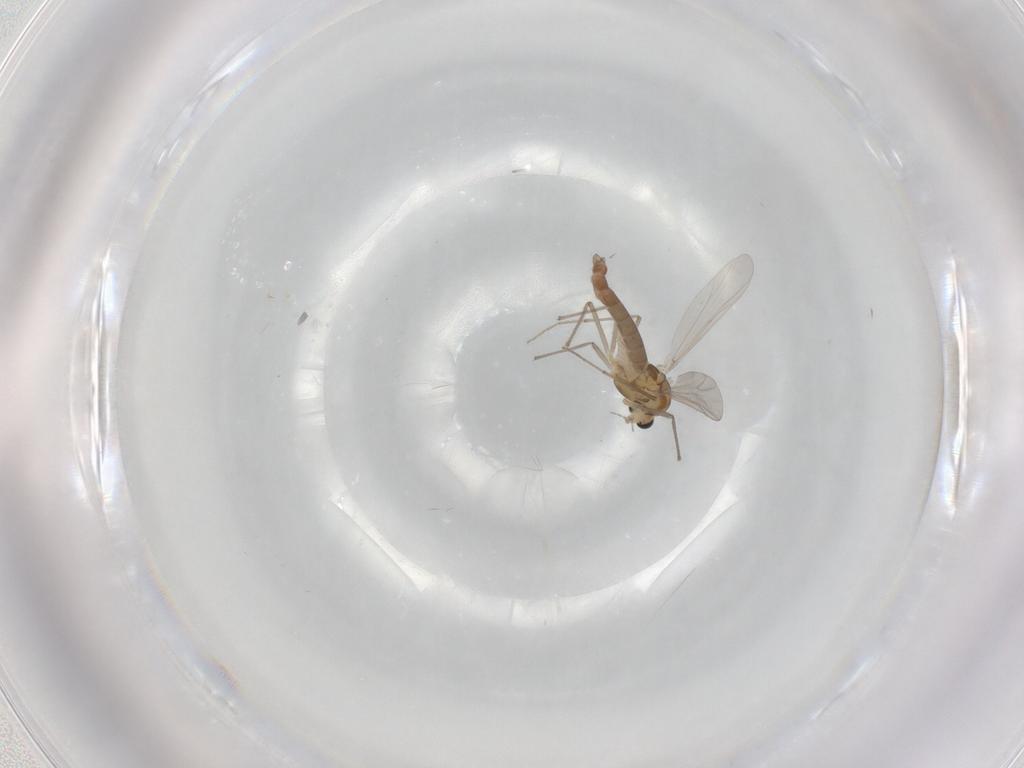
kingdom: Animalia
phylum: Arthropoda
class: Insecta
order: Diptera
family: Chironomidae
